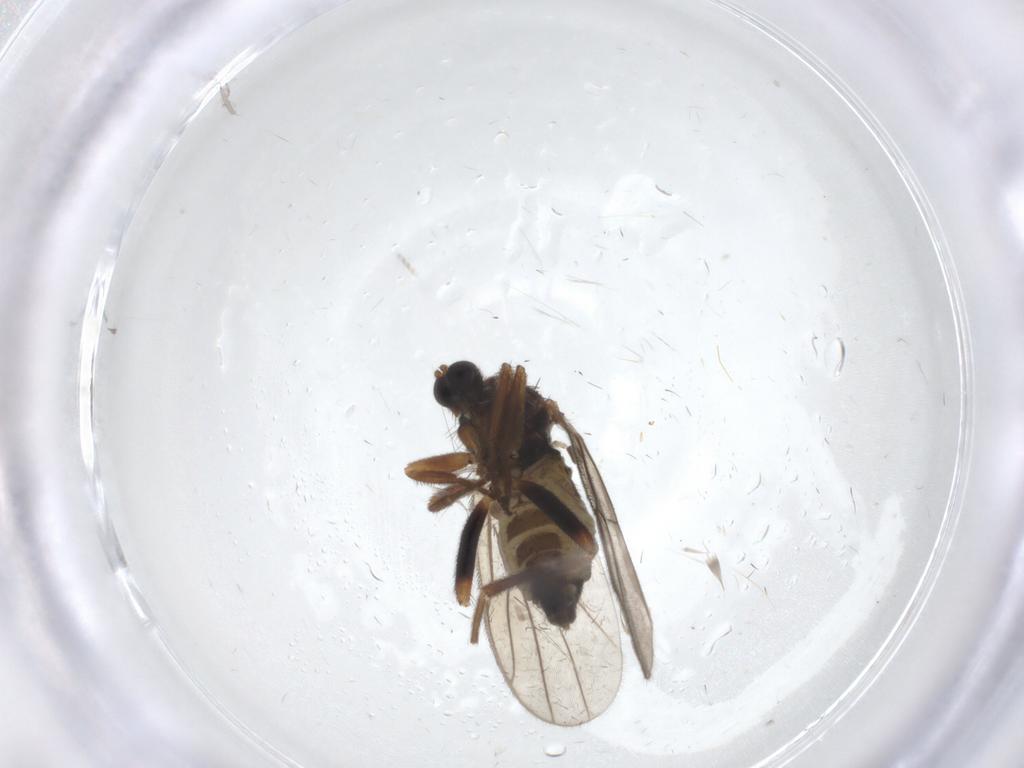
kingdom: Animalia
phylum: Arthropoda
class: Insecta
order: Diptera
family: Hybotidae
